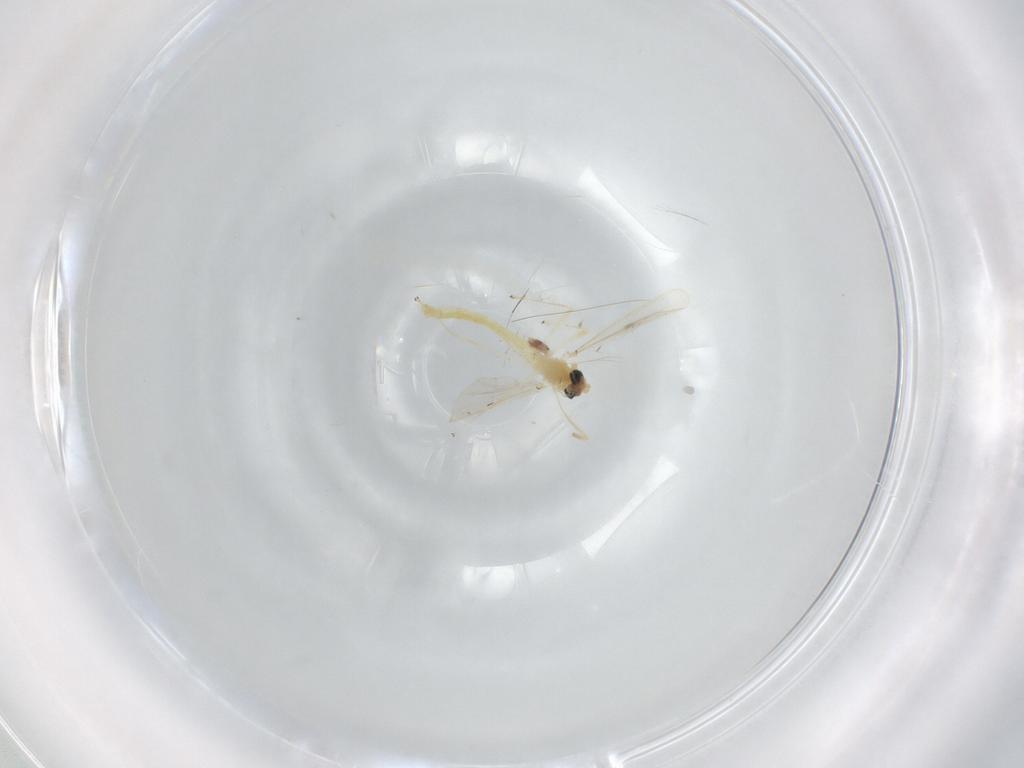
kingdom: Animalia
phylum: Arthropoda
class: Insecta
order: Diptera
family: Chironomidae
